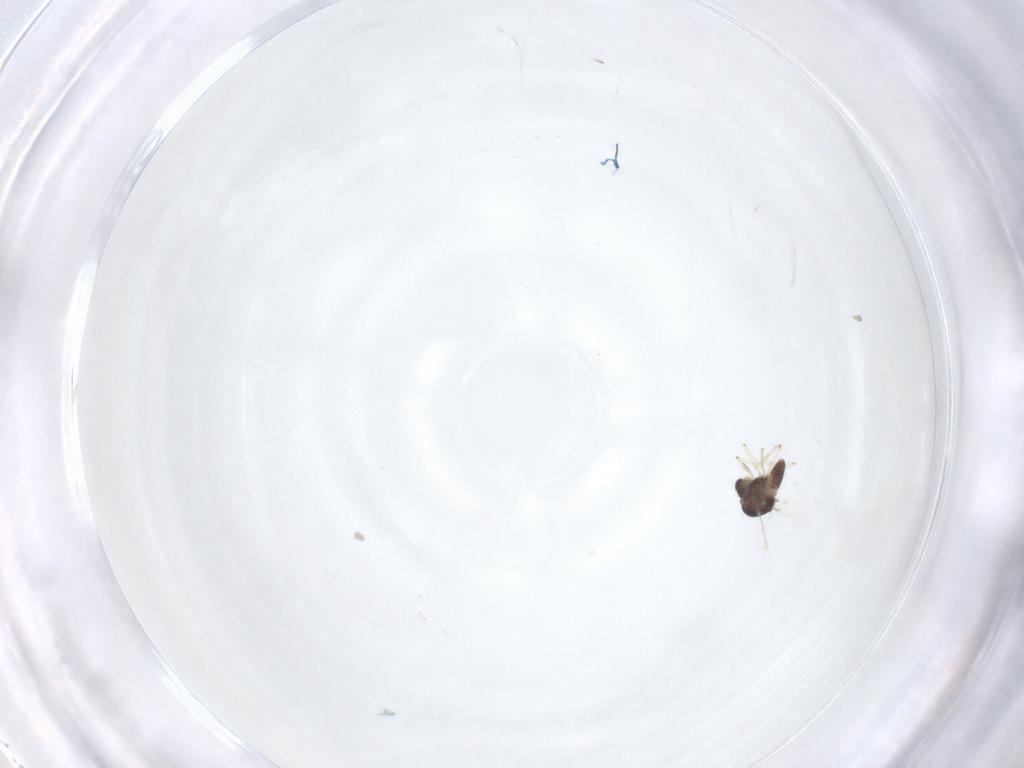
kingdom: Animalia
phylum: Arthropoda
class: Insecta
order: Diptera
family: Chironomidae
